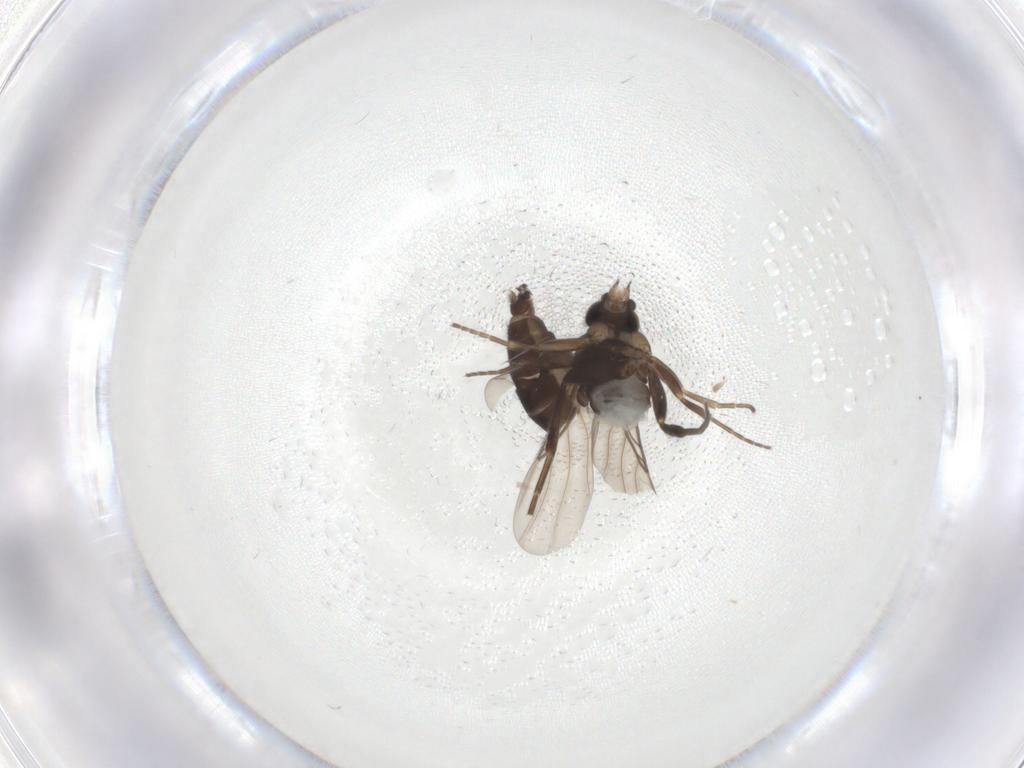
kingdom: Animalia
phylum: Arthropoda
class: Insecta
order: Diptera
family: Phoridae
